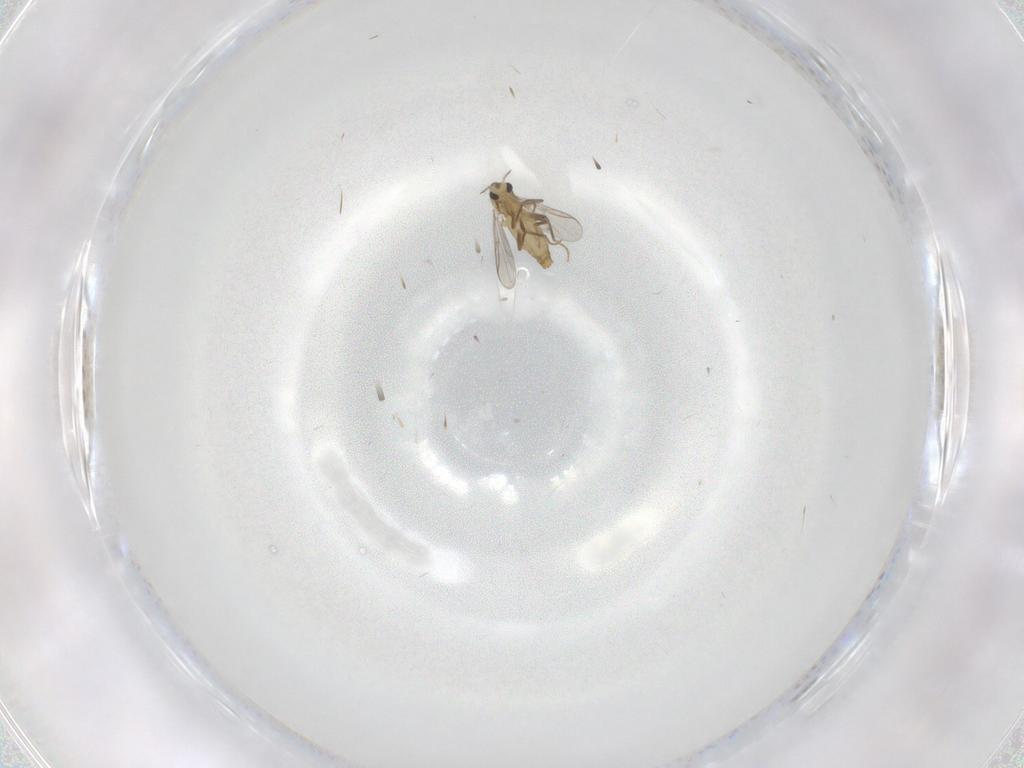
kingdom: Animalia
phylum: Arthropoda
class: Insecta
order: Diptera
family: Chironomidae
